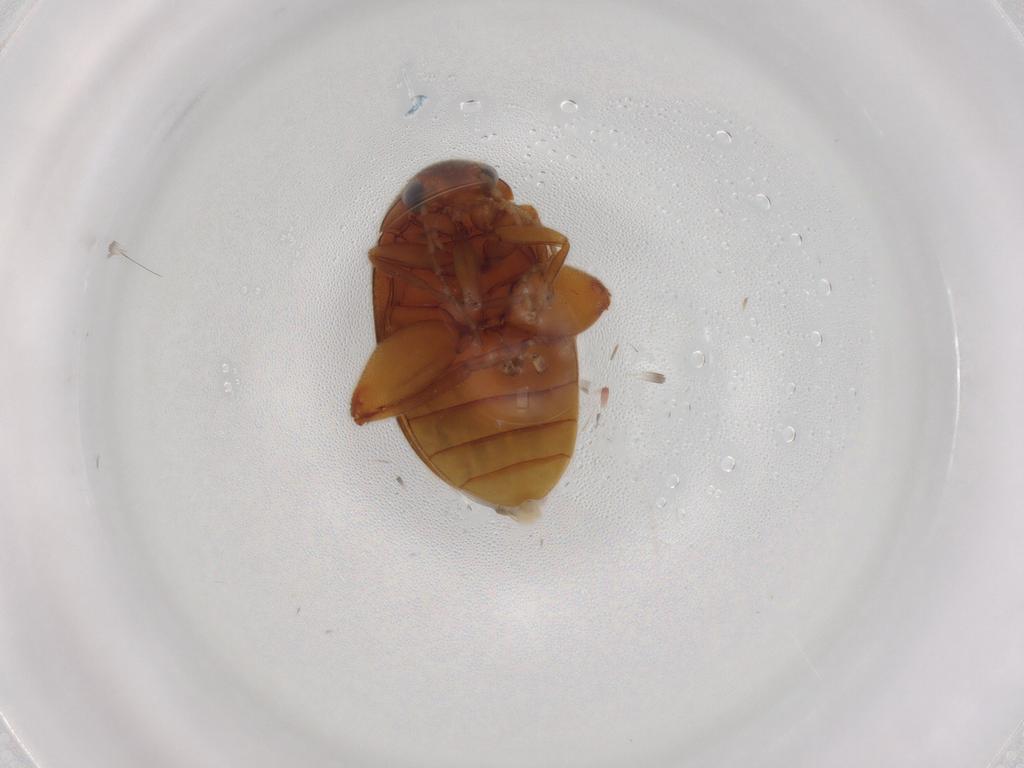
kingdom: Animalia
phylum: Arthropoda
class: Insecta
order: Coleoptera
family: Scirtidae
